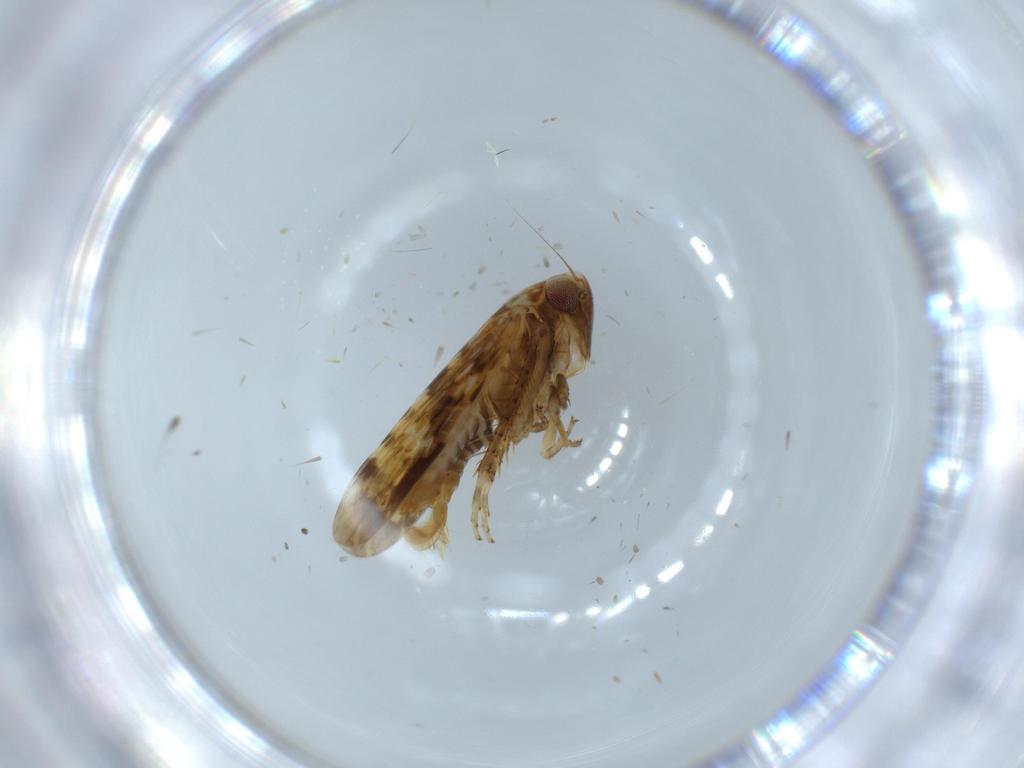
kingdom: Animalia
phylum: Arthropoda
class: Insecta
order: Hemiptera
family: Cicadellidae
